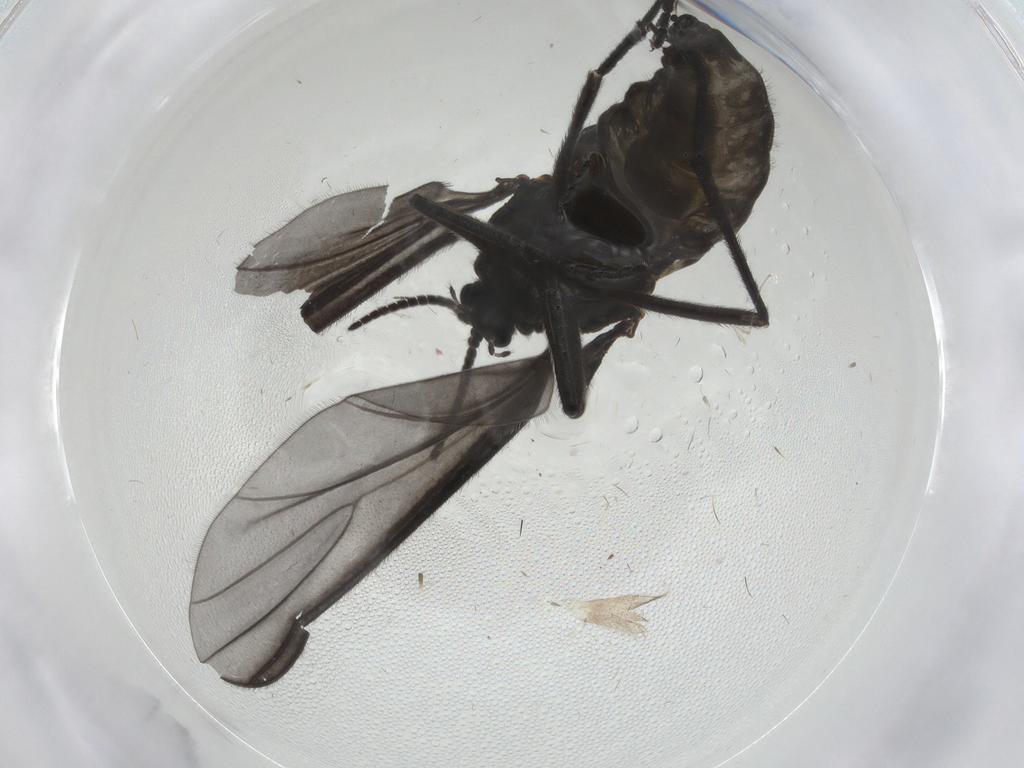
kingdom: Animalia
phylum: Arthropoda
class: Insecta
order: Diptera
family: Sciaridae
